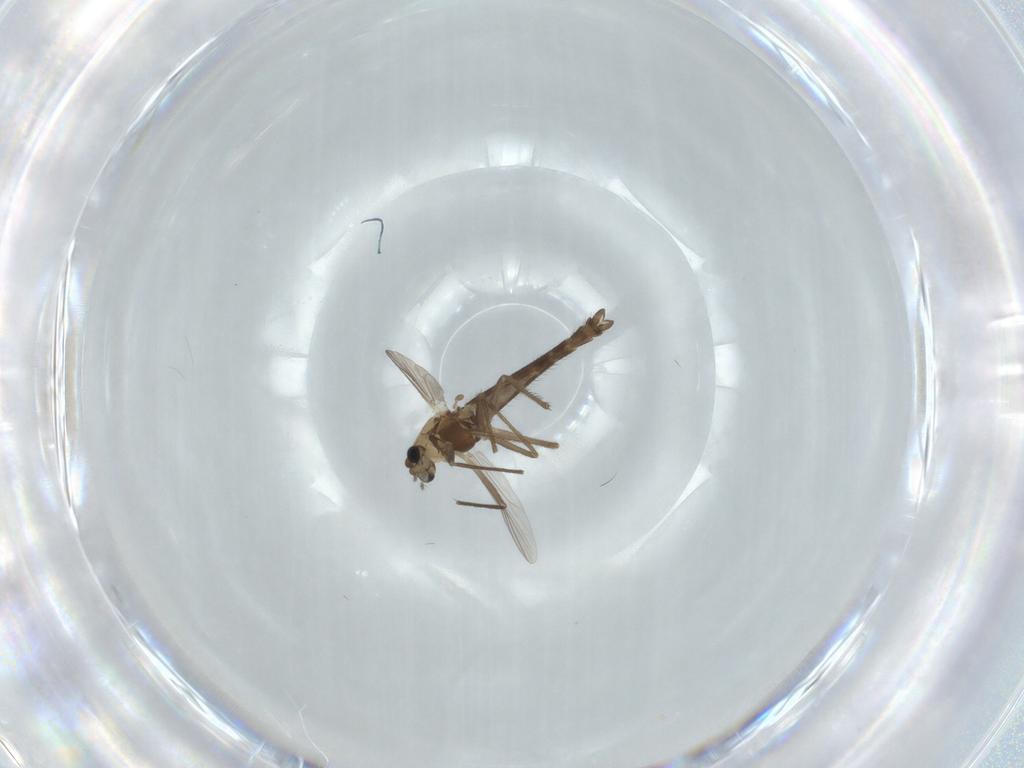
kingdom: Animalia
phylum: Arthropoda
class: Insecta
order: Diptera
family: Chironomidae
